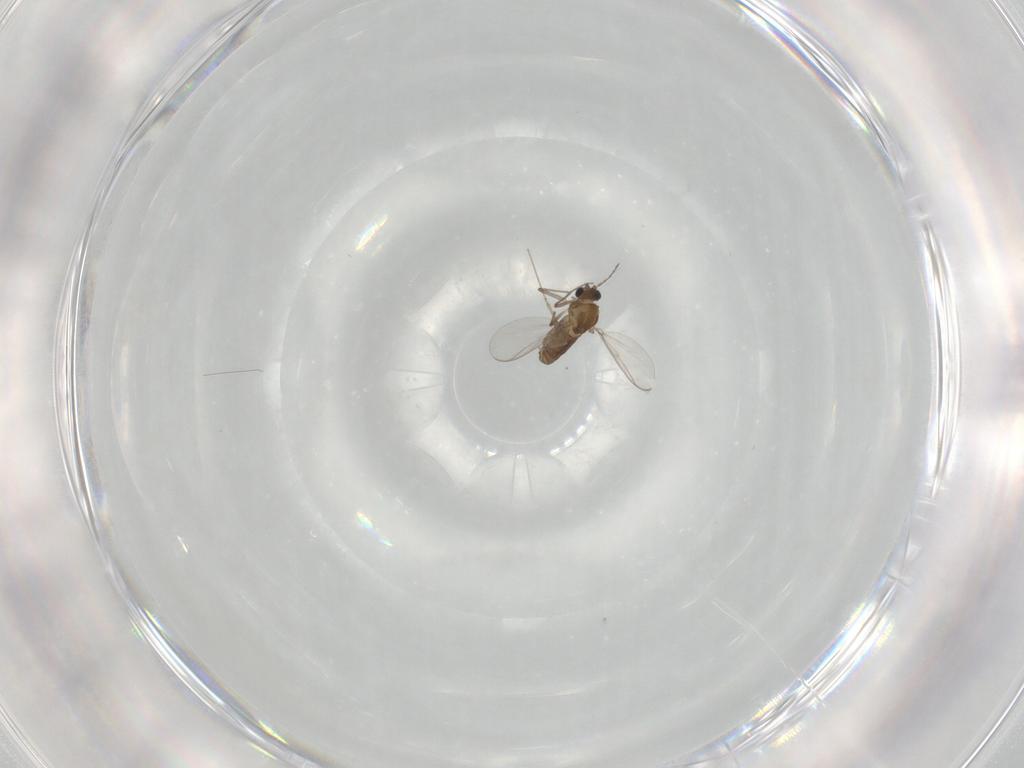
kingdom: Animalia
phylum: Arthropoda
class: Insecta
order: Diptera
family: Chironomidae
